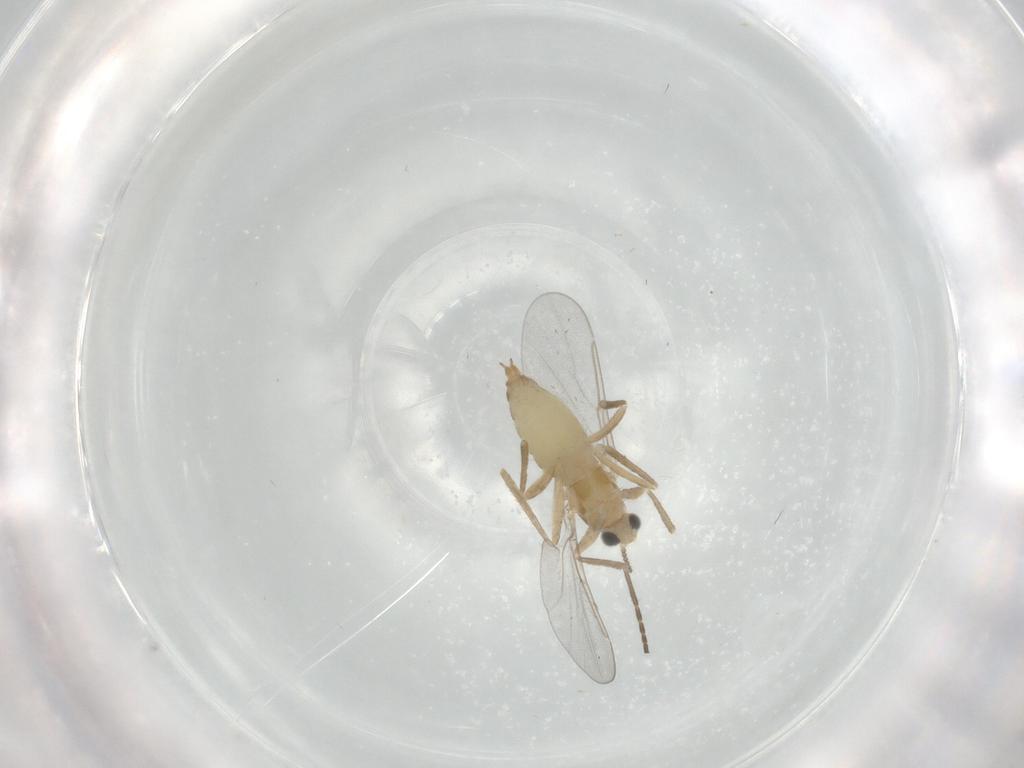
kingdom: Animalia
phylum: Arthropoda
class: Insecta
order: Diptera
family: Cecidomyiidae
